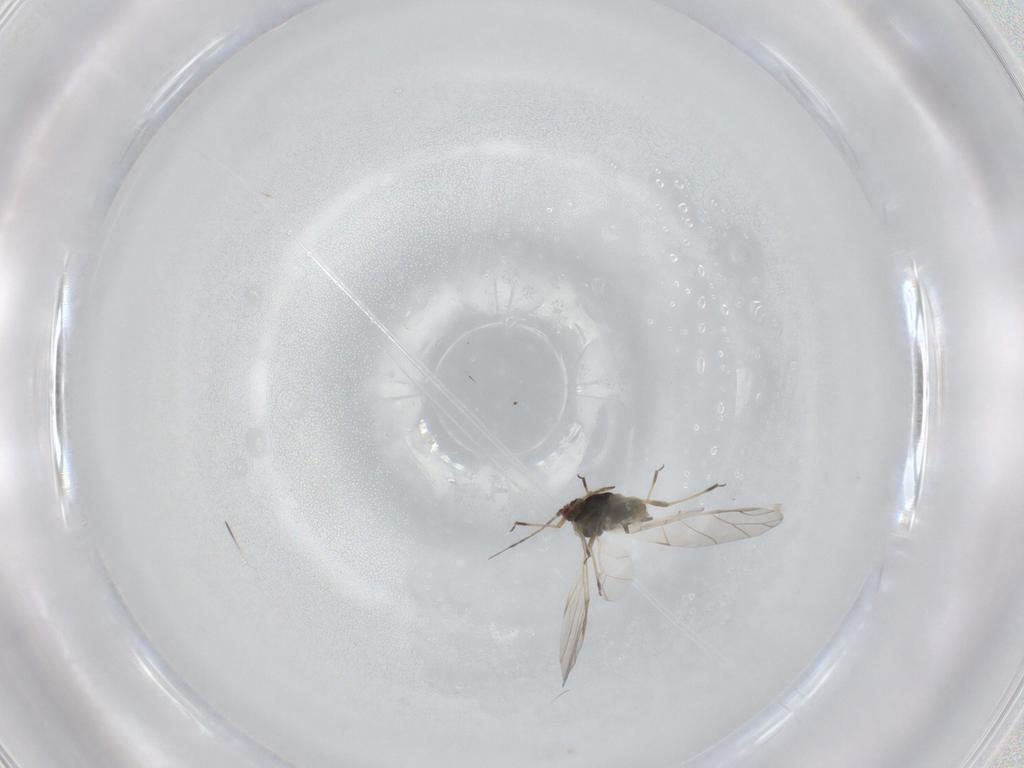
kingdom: Animalia
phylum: Arthropoda
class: Insecta
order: Hemiptera
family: Aphididae
